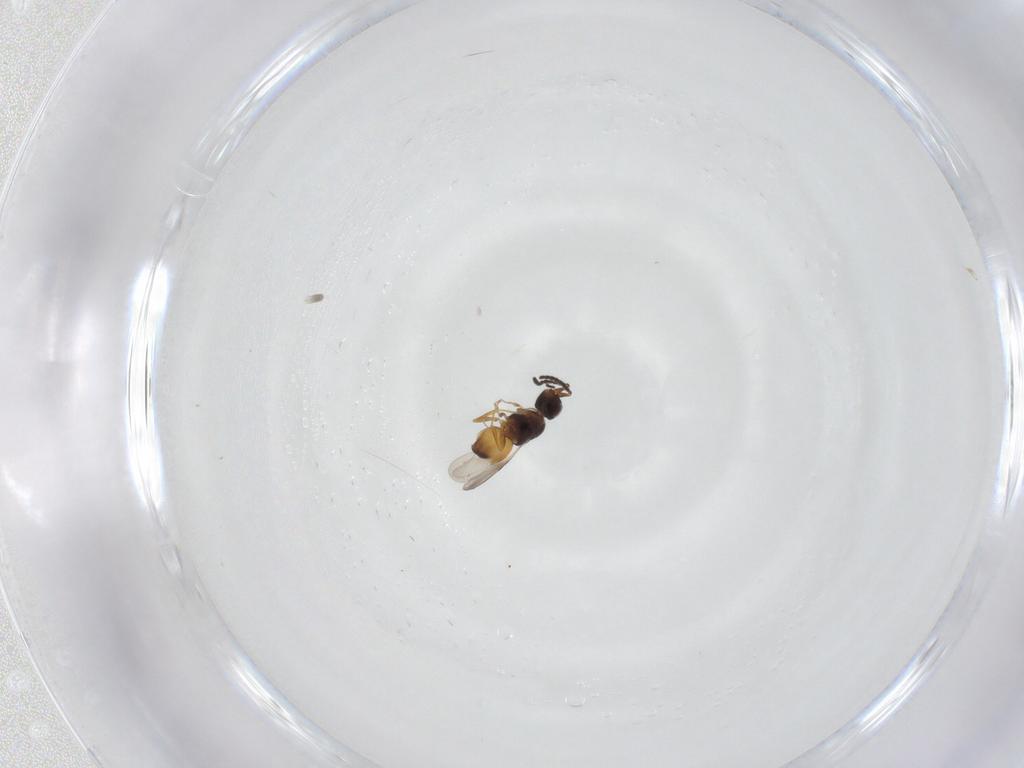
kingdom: Animalia
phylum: Arthropoda
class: Insecta
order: Hymenoptera
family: Ceraphronidae
